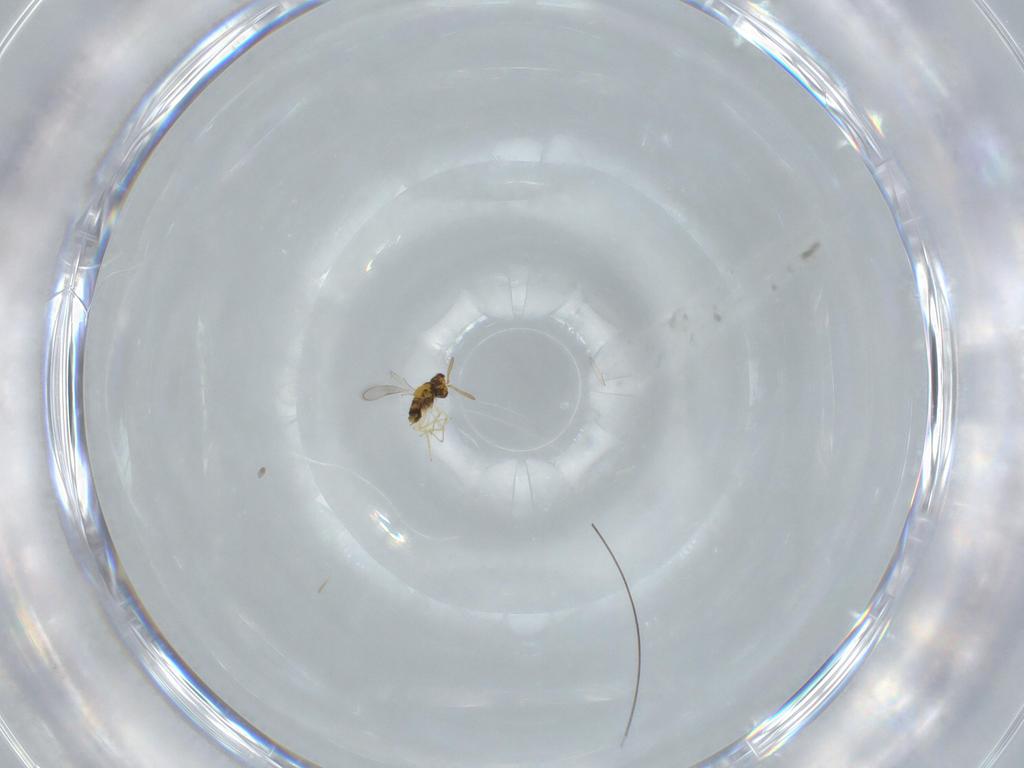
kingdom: Animalia
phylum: Arthropoda
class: Insecta
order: Hymenoptera
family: Aphelinidae
